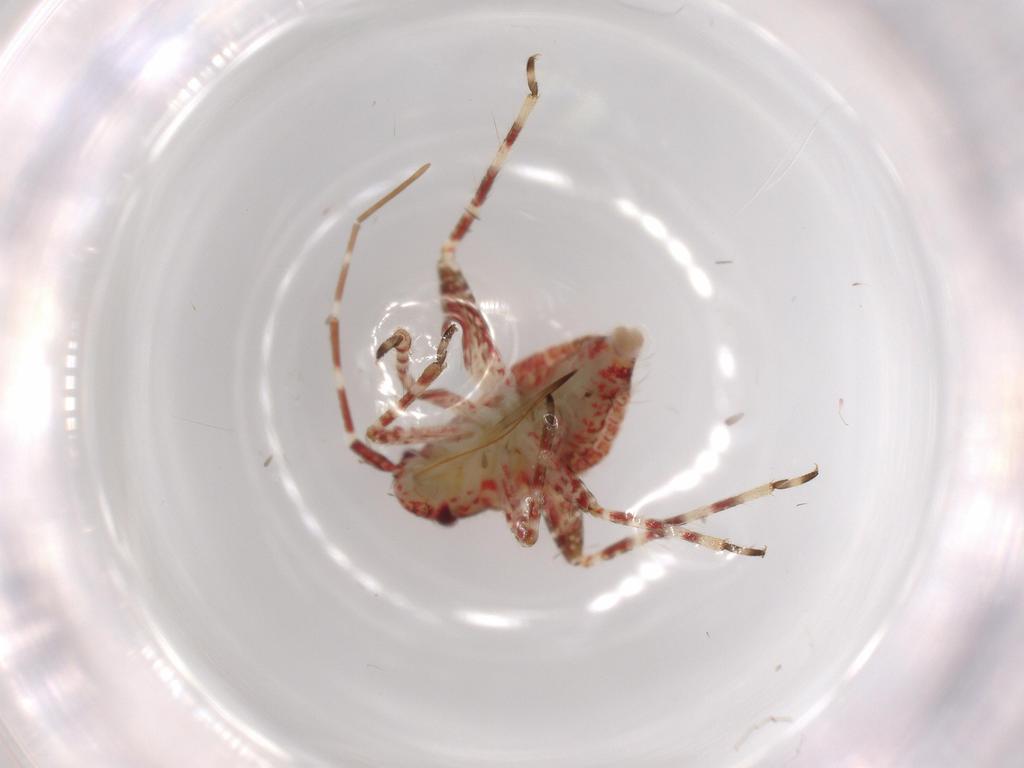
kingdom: Animalia
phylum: Arthropoda
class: Insecta
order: Hemiptera
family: Miridae
